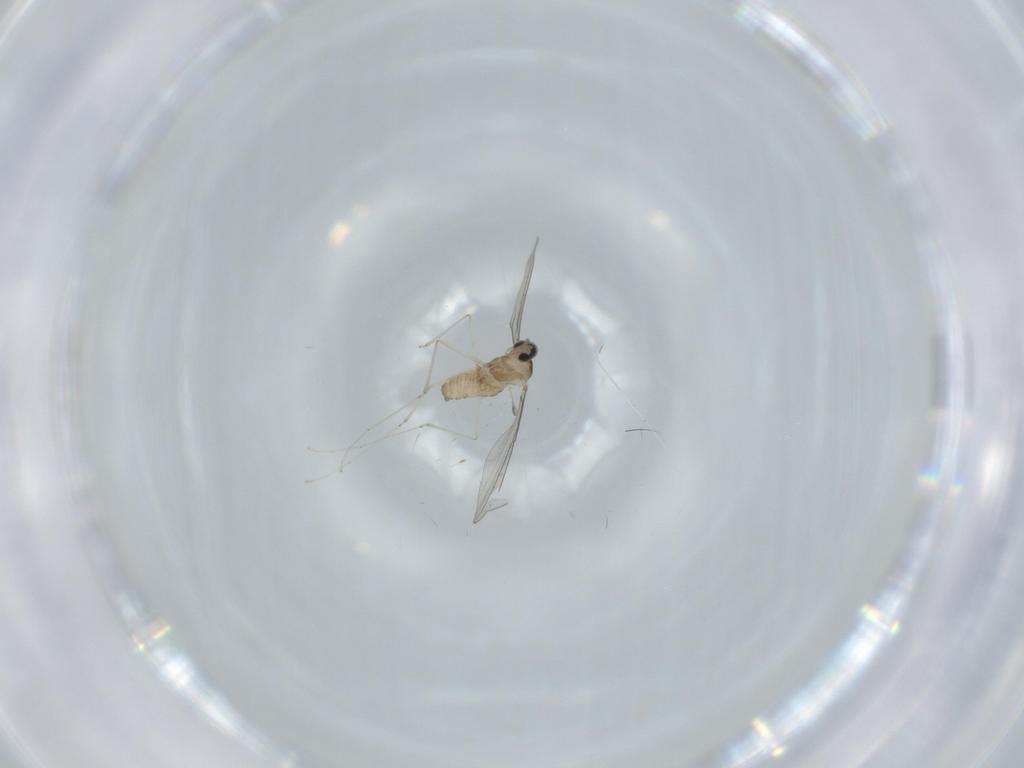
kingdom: Animalia
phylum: Arthropoda
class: Insecta
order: Diptera
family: Cecidomyiidae
